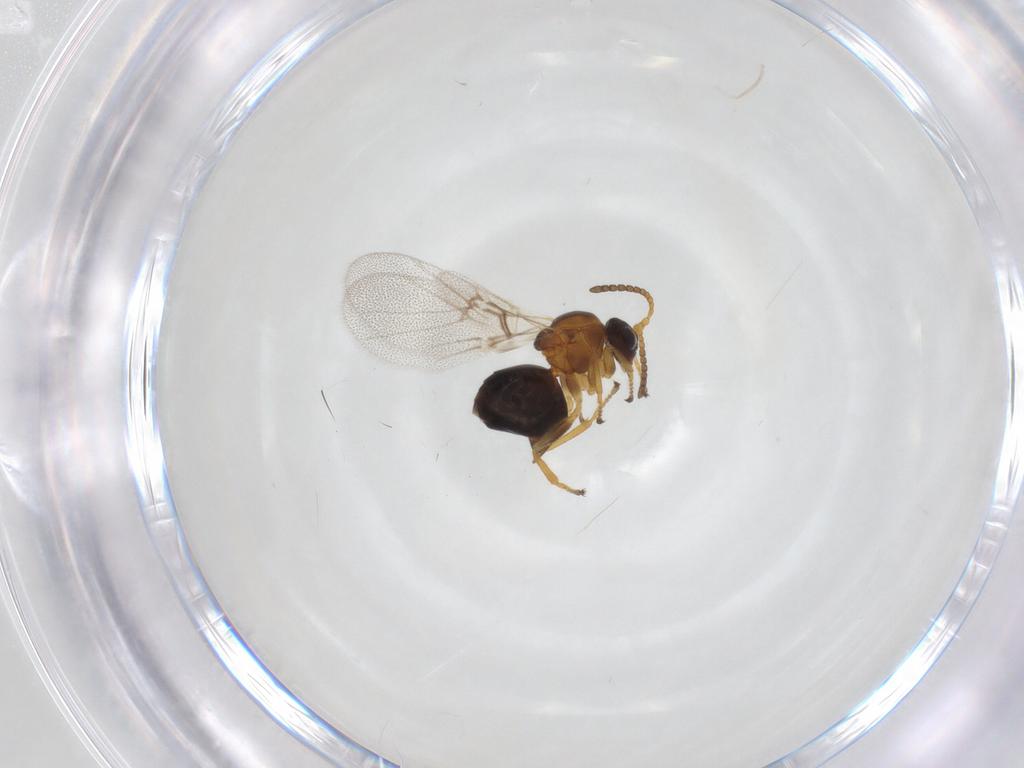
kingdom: Animalia
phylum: Arthropoda
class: Insecta
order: Hymenoptera
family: Cynipidae
